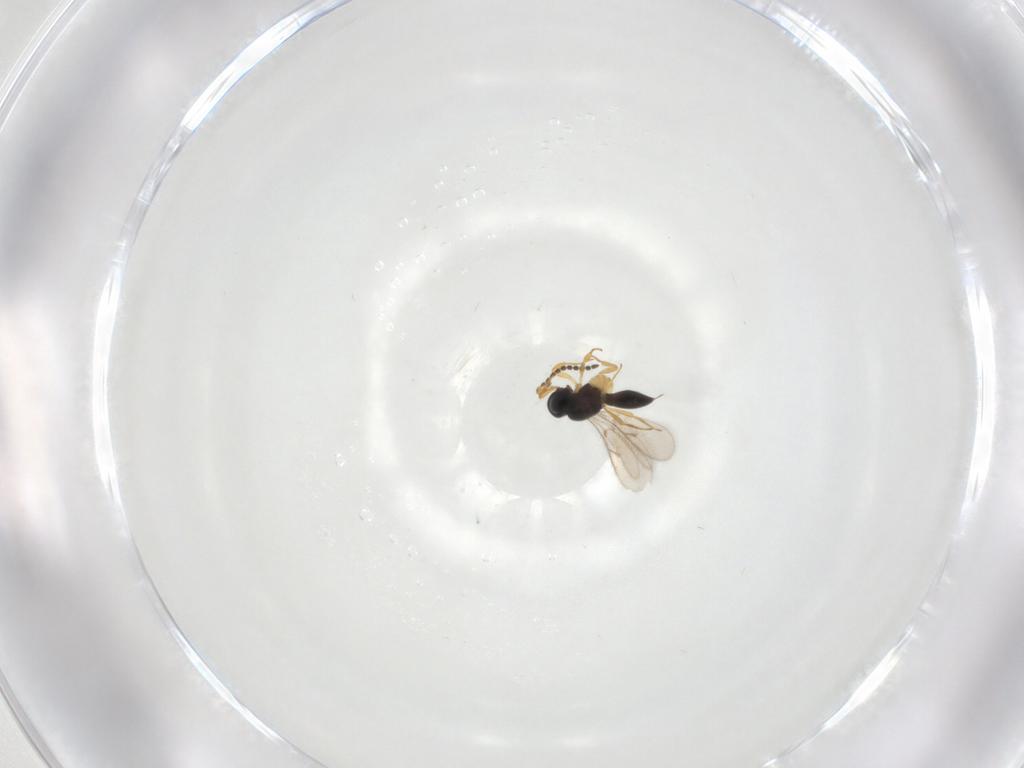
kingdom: Animalia
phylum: Arthropoda
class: Insecta
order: Hymenoptera
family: Scelionidae
